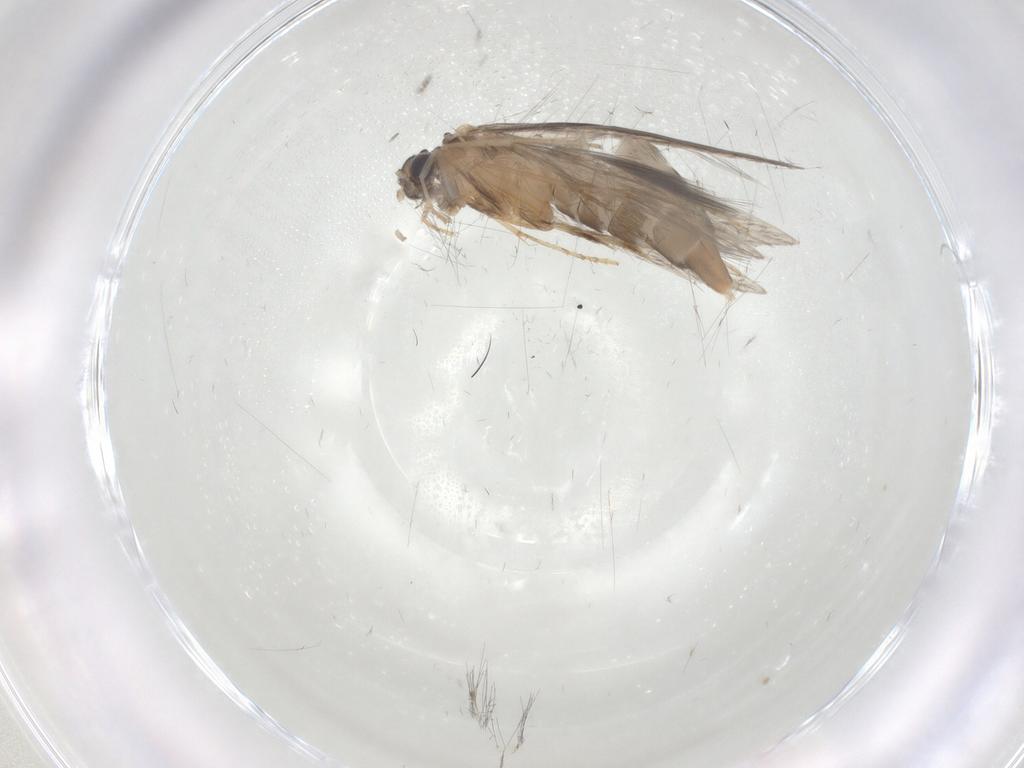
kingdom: Animalia
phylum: Arthropoda
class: Insecta
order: Trichoptera
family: Hydroptilidae
